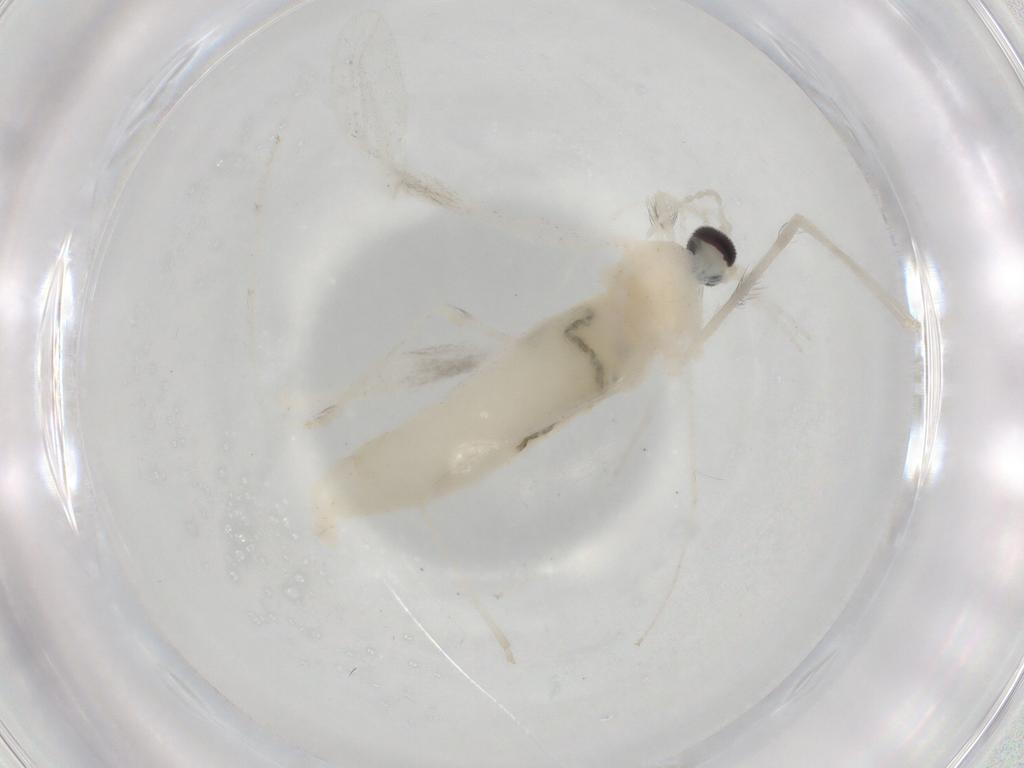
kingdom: Animalia
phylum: Arthropoda
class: Insecta
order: Diptera
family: Cecidomyiidae
